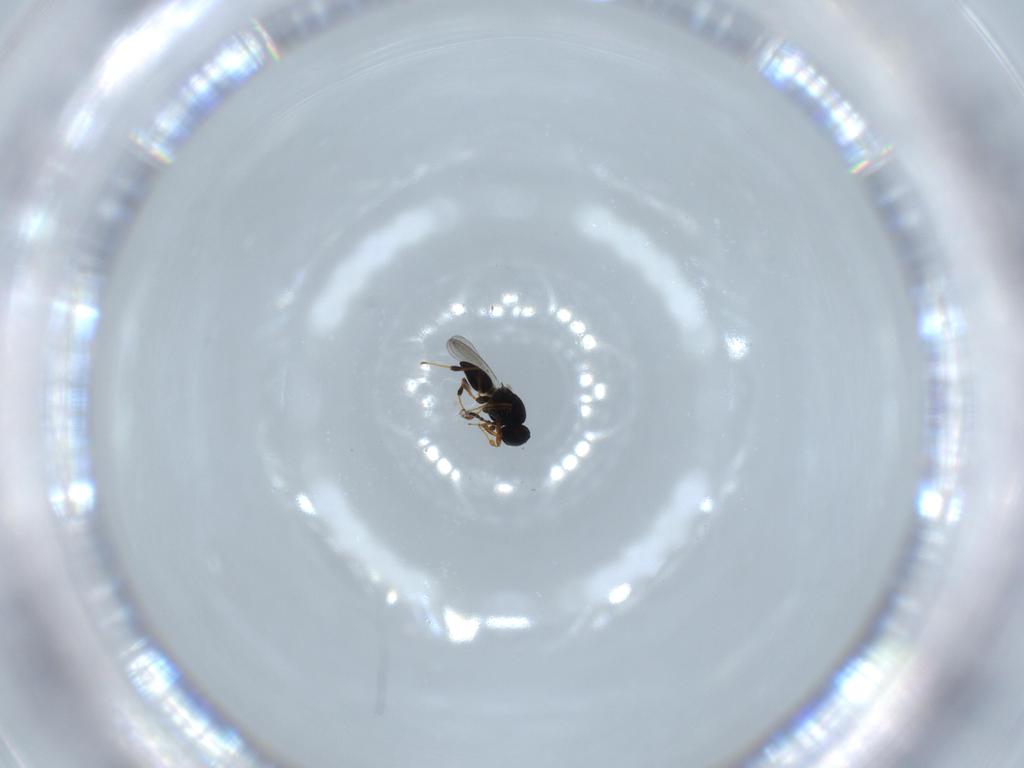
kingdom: Animalia
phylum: Arthropoda
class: Insecta
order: Hymenoptera
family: Platygastridae
